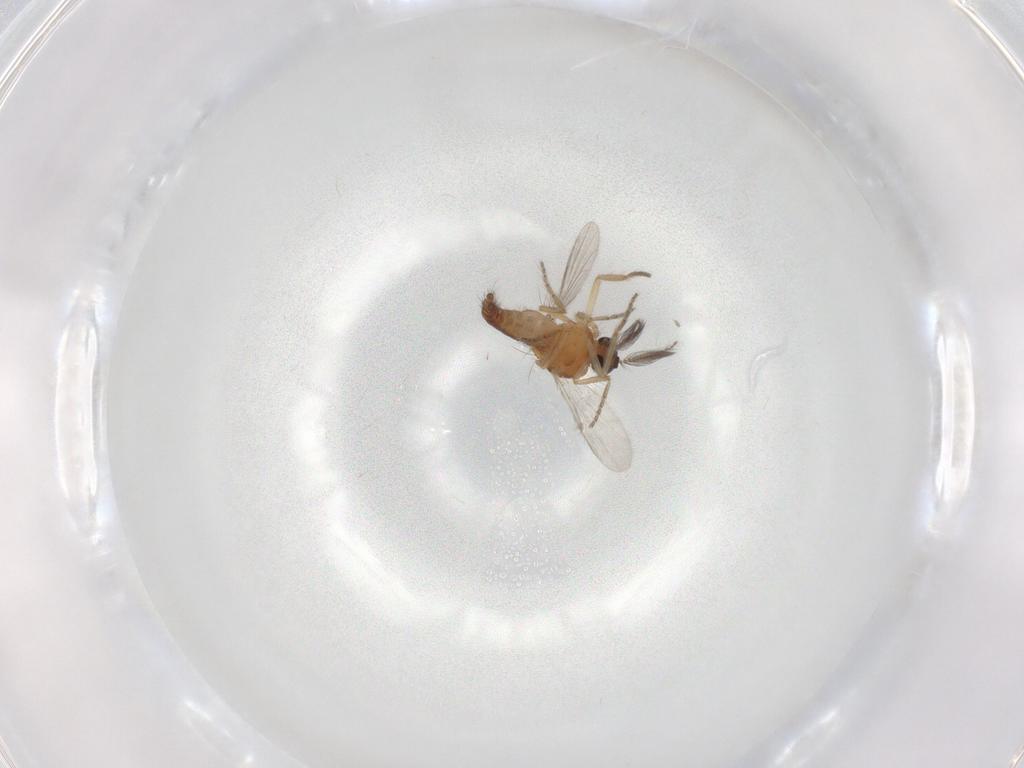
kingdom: Animalia
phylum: Arthropoda
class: Insecta
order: Diptera
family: Ceratopogonidae
